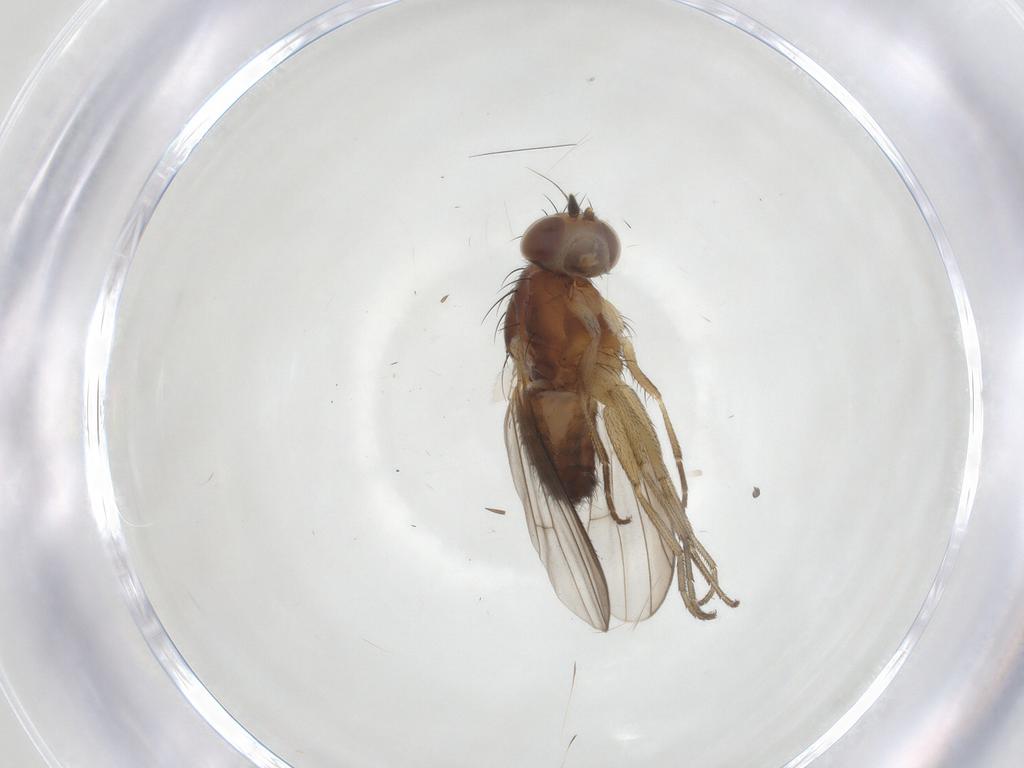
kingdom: Animalia
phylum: Arthropoda
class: Insecta
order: Diptera
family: Heleomyzidae
